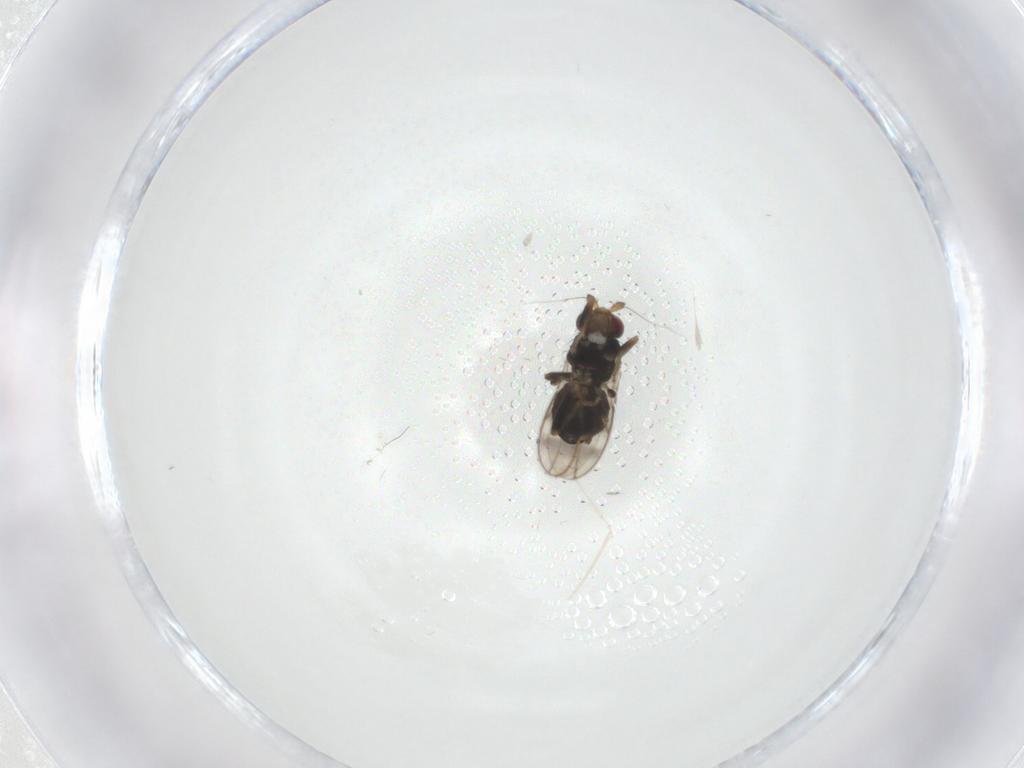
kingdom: Animalia
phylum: Arthropoda
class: Insecta
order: Diptera
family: Sphaeroceridae
